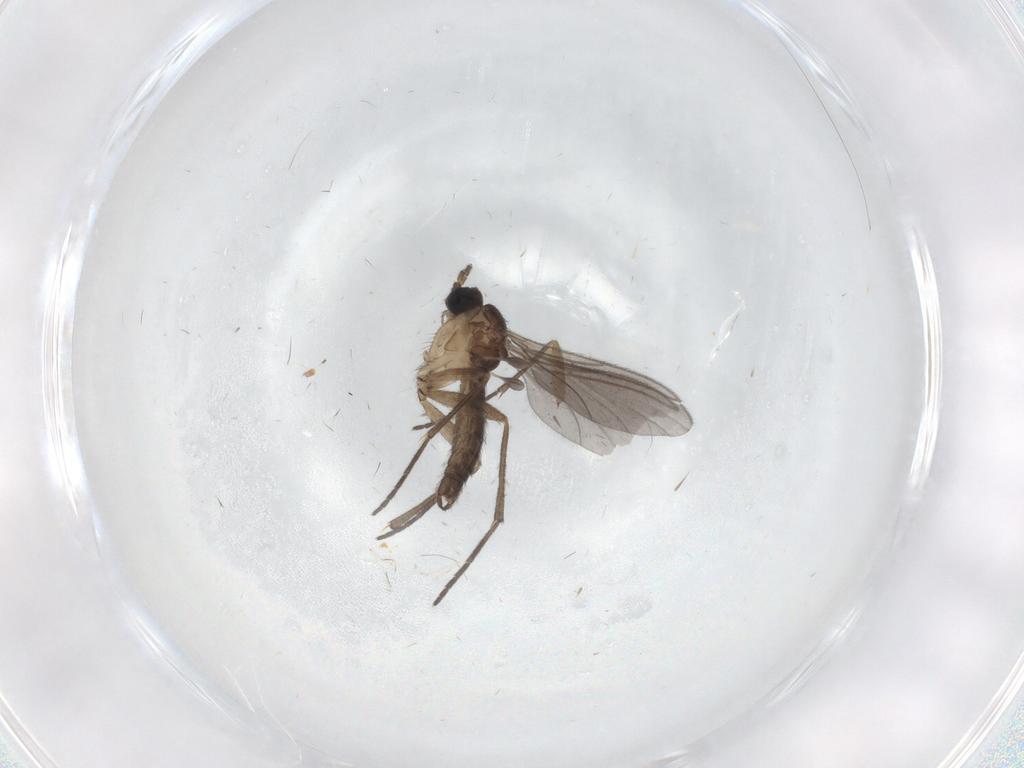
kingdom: Animalia
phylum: Arthropoda
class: Insecta
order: Diptera
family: Sciaridae
